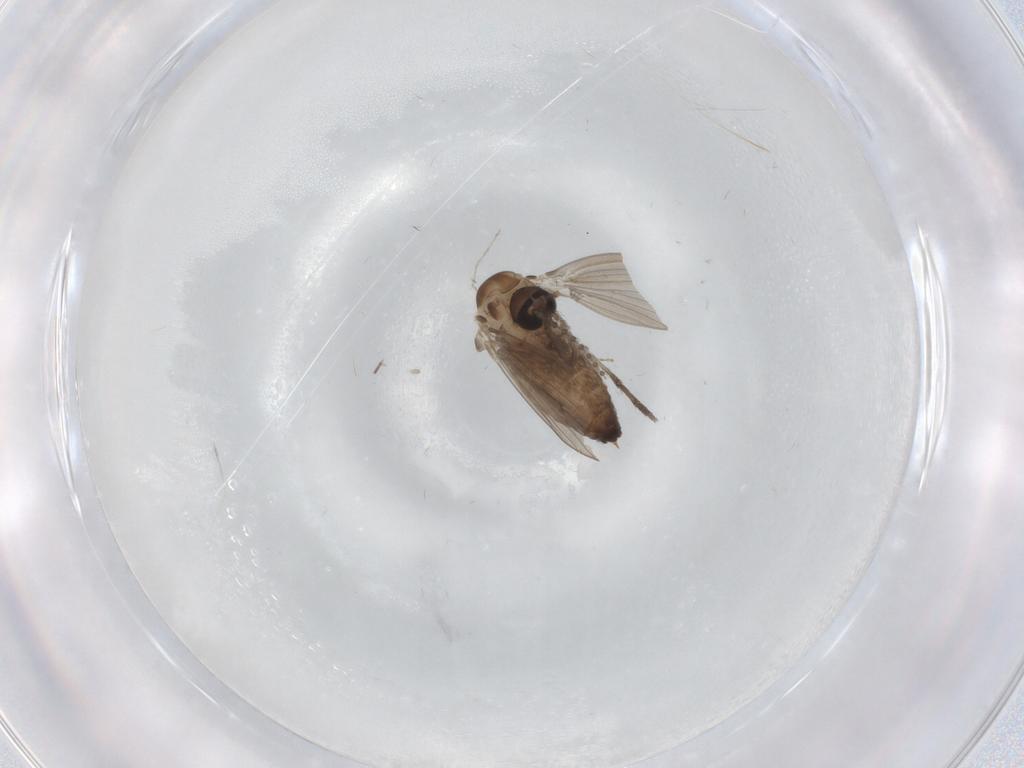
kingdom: Animalia
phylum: Arthropoda
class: Insecta
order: Diptera
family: Psychodidae
